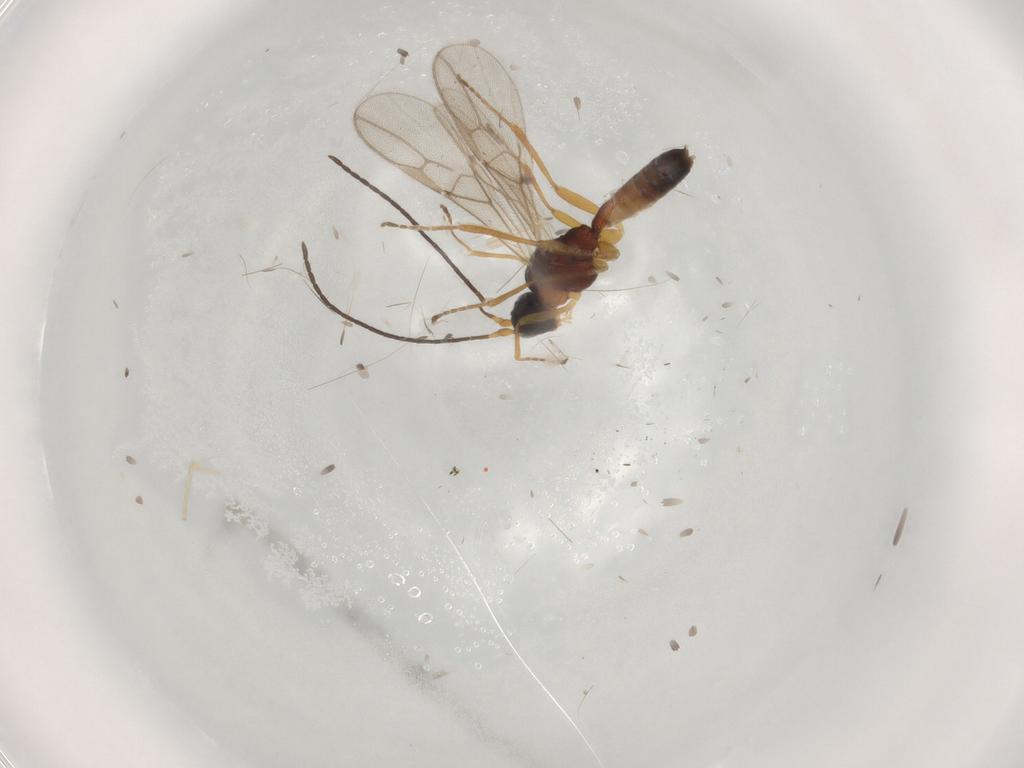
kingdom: Animalia
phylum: Arthropoda
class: Insecta
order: Hymenoptera
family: Braconidae
